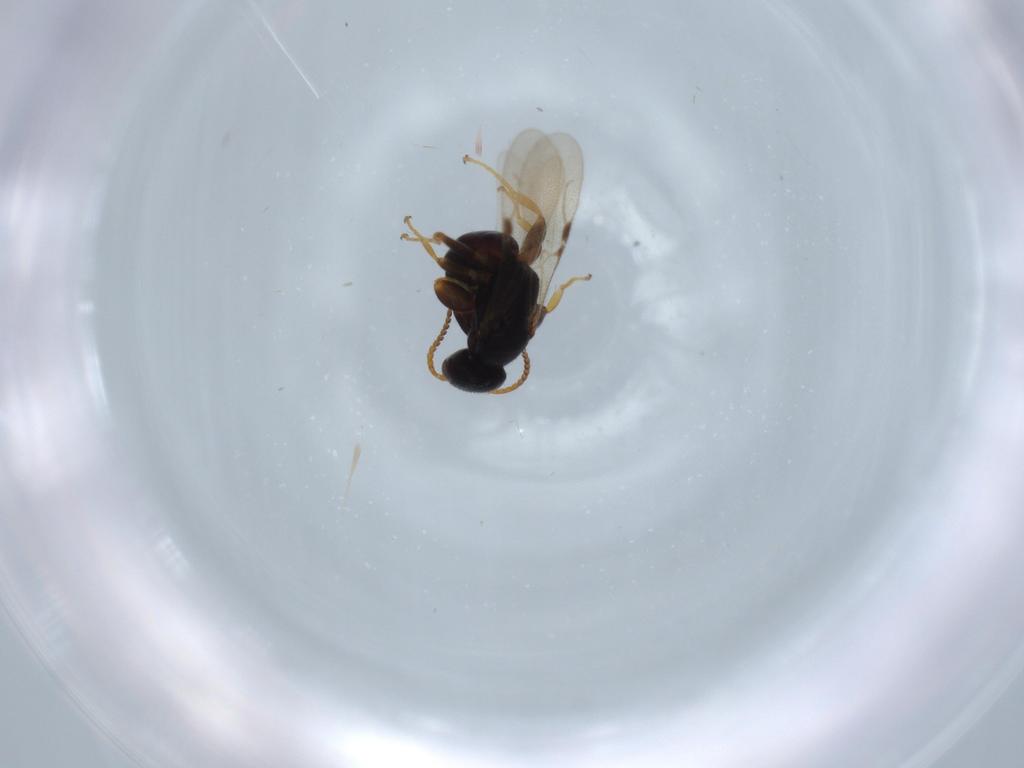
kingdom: Animalia
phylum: Arthropoda
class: Insecta
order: Hymenoptera
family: Bethylidae
